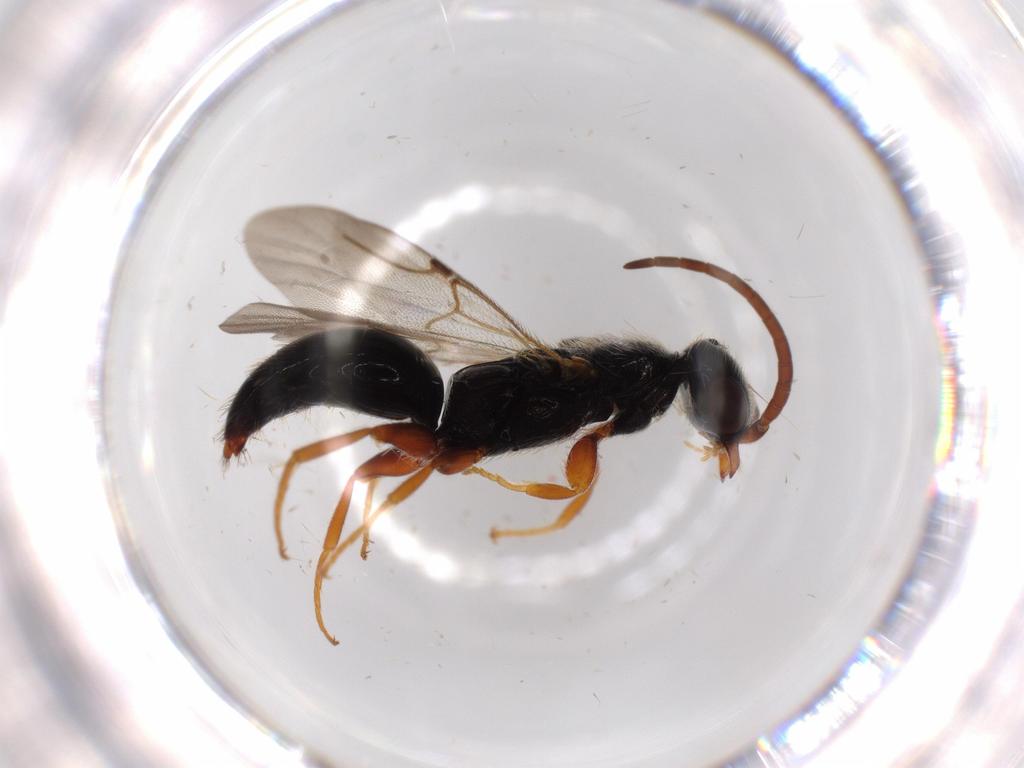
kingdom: Animalia
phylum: Arthropoda
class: Insecta
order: Hymenoptera
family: Bethylidae
